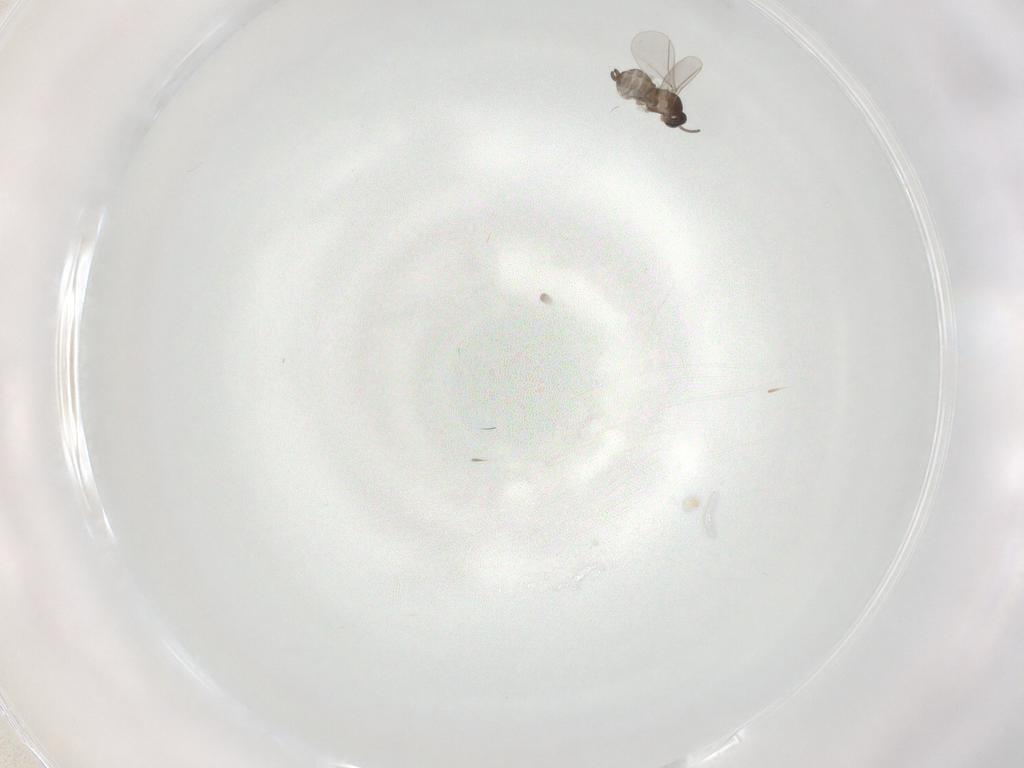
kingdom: Animalia
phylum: Arthropoda
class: Insecta
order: Diptera
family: Cecidomyiidae
